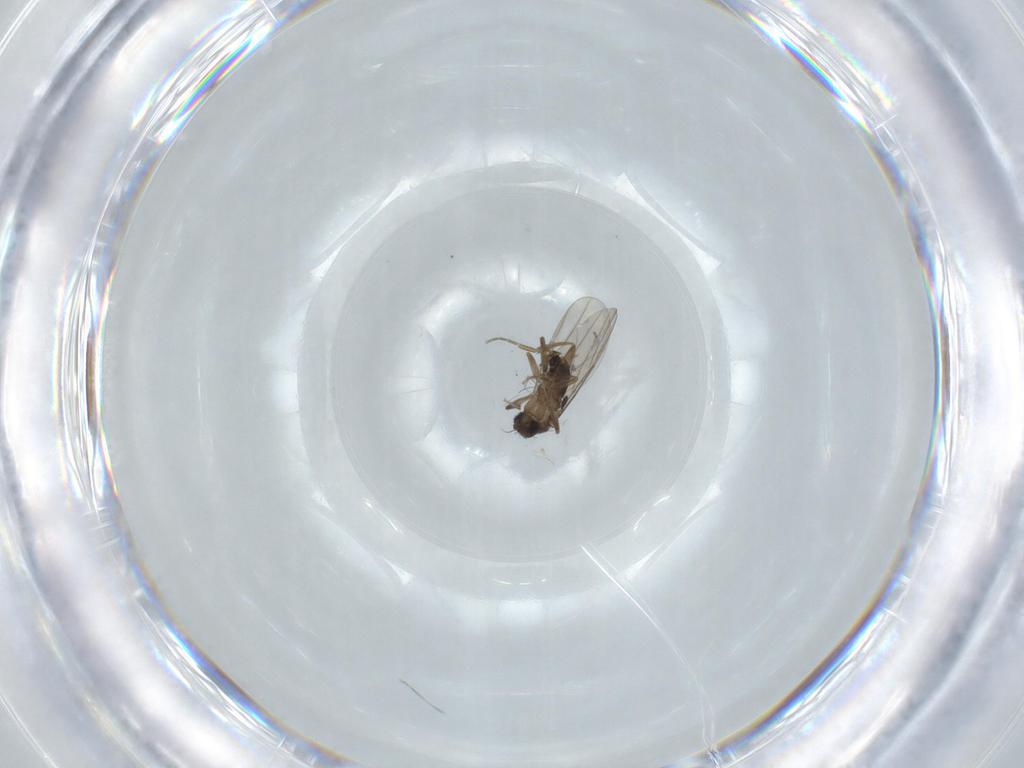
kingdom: Animalia
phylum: Arthropoda
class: Insecta
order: Diptera
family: Phoridae
